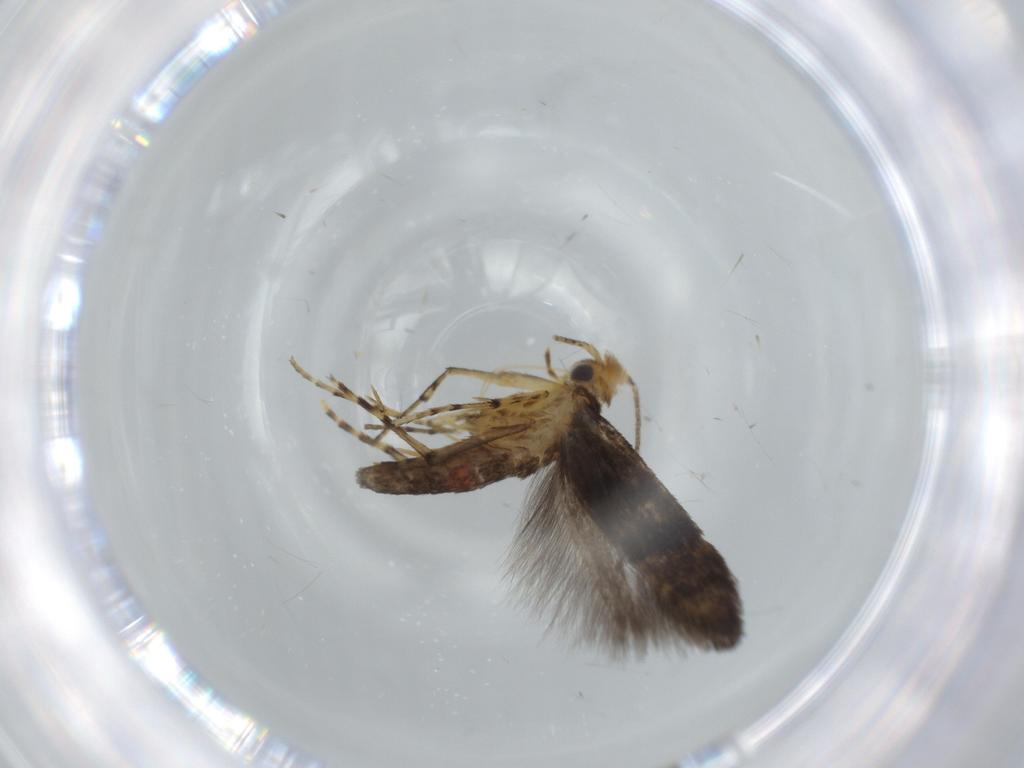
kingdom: Animalia
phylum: Arthropoda
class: Insecta
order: Lepidoptera
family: Argyresthiidae
